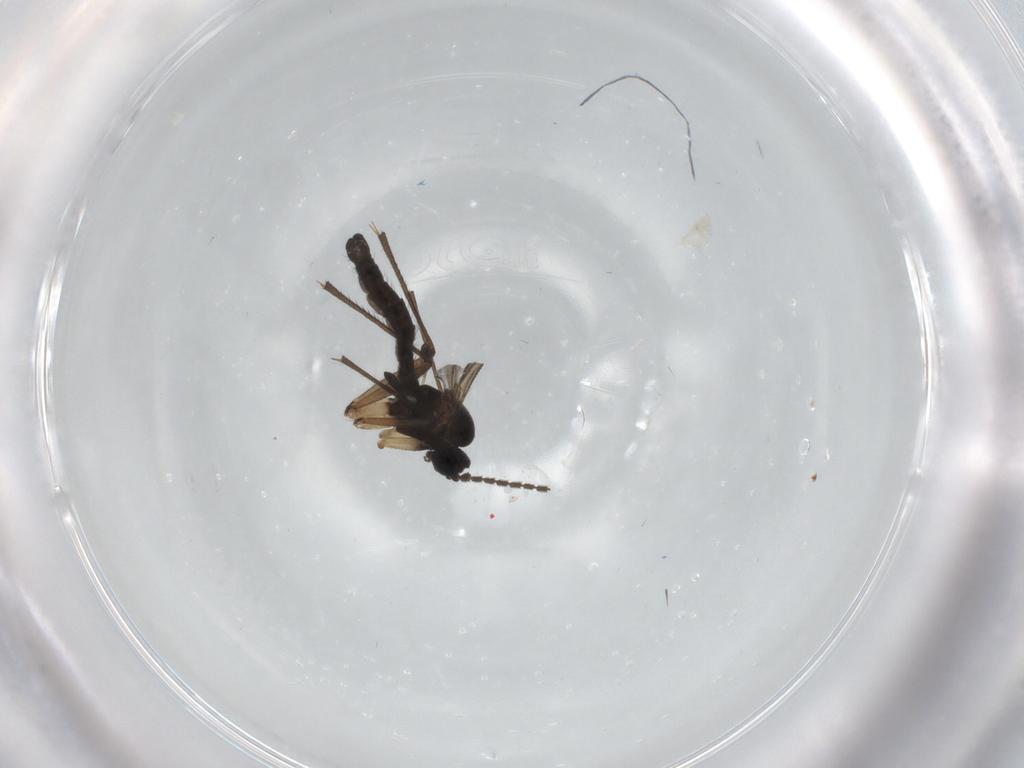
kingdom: Animalia
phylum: Arthropoda
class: Insecta
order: Diptera
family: Sciaridae
